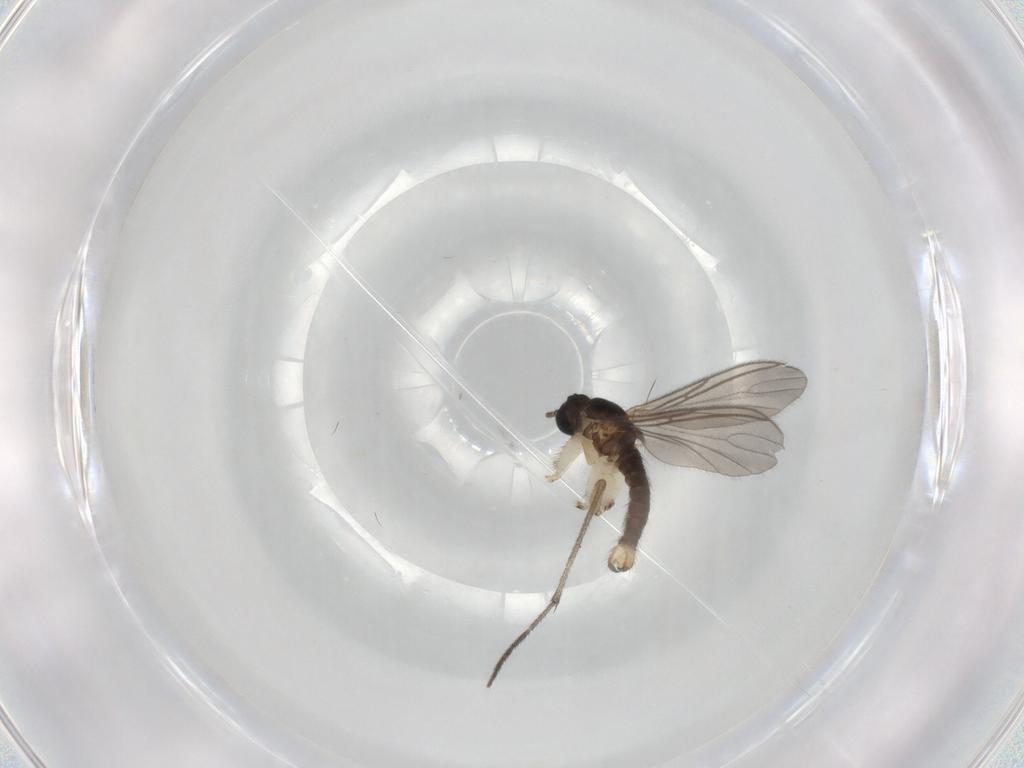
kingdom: Animalia
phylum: Arthropoda
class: Insecta
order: Diptera
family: Sciaridae
